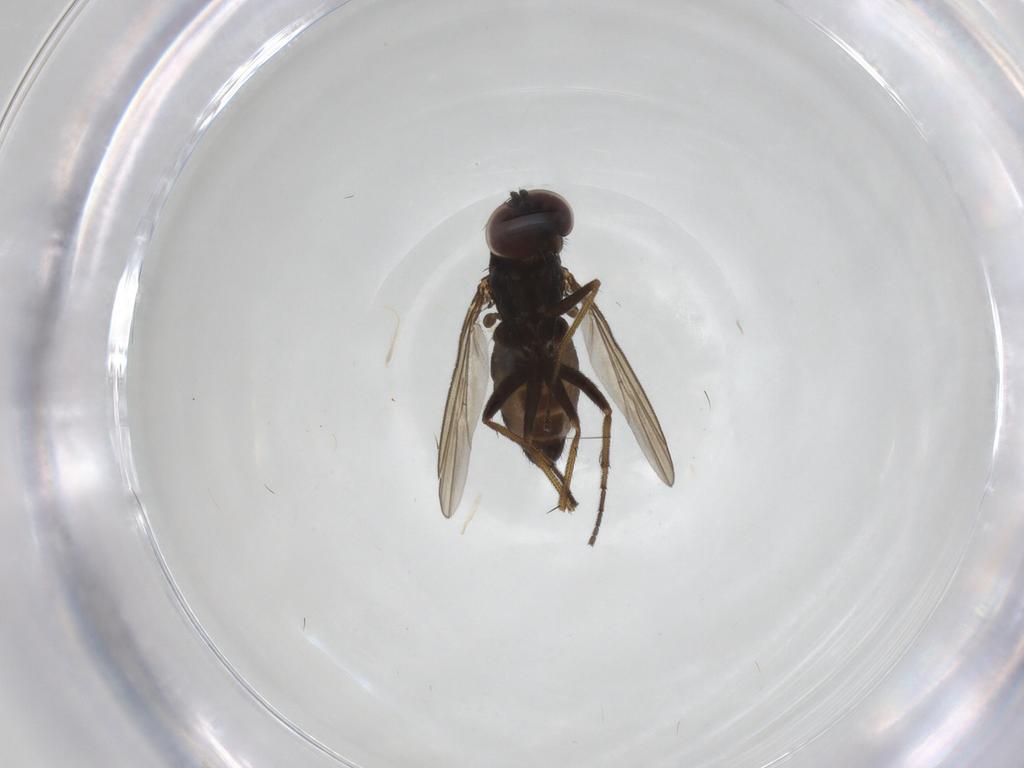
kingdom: Animalia
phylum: Arthropoda
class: Insecta
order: Diptera
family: Dolichopodidae
